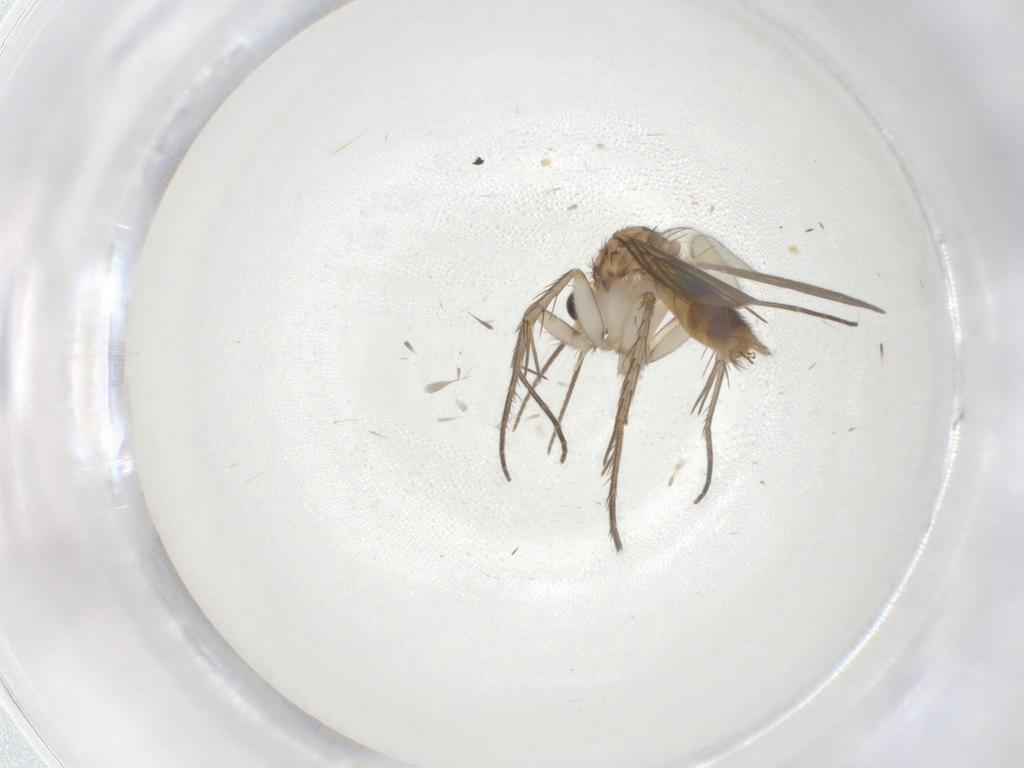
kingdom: Animalia
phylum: Arthropoda
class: Insecta
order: Diptera
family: Mycetophilidae
